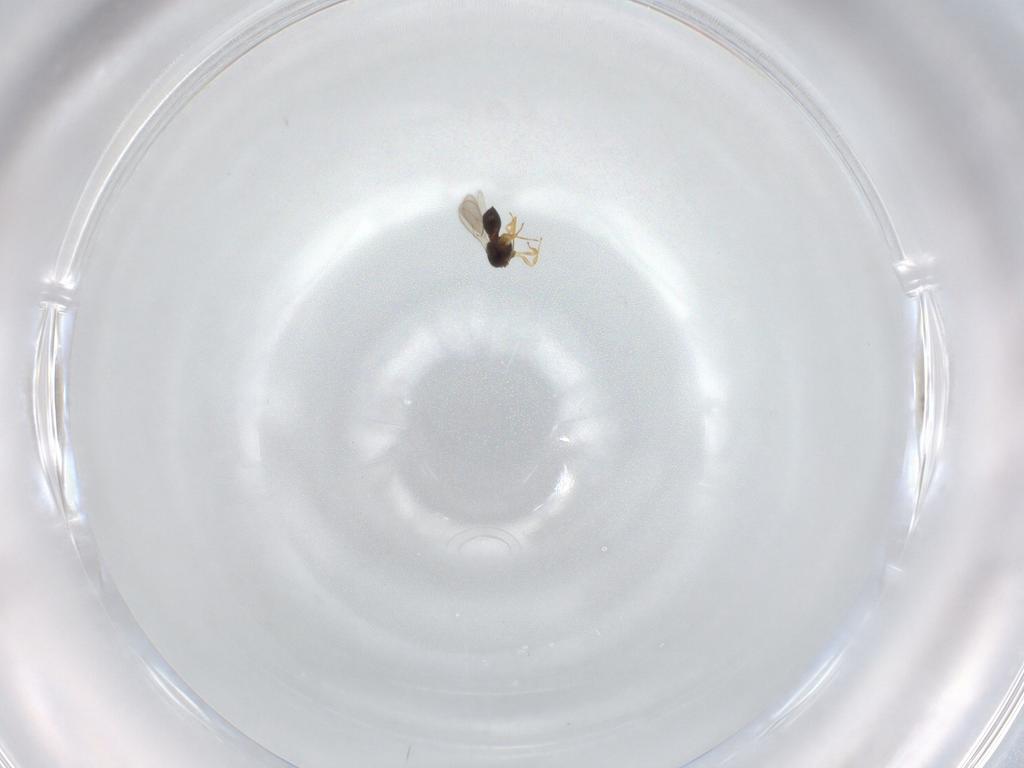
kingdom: Animalia
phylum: Arthropoda
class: Insecta
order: Hymenoptera
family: Scelionidae
